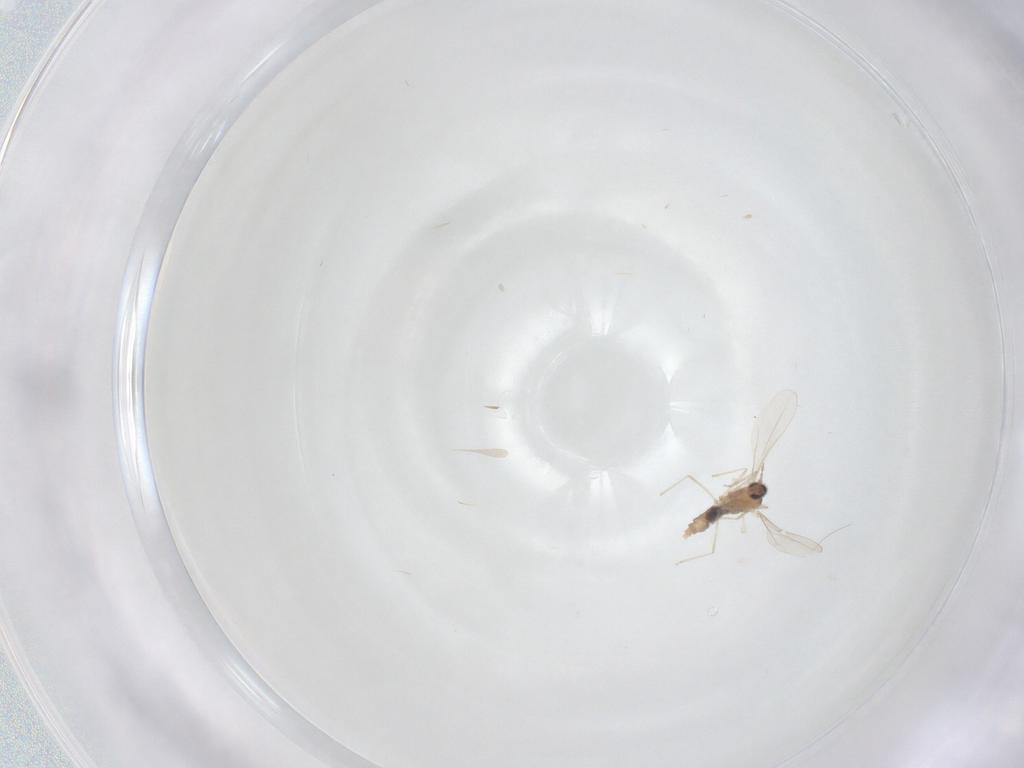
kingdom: Animalia
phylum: Arthropoda
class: Insecta
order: Diptera
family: Cecidomyiidae
